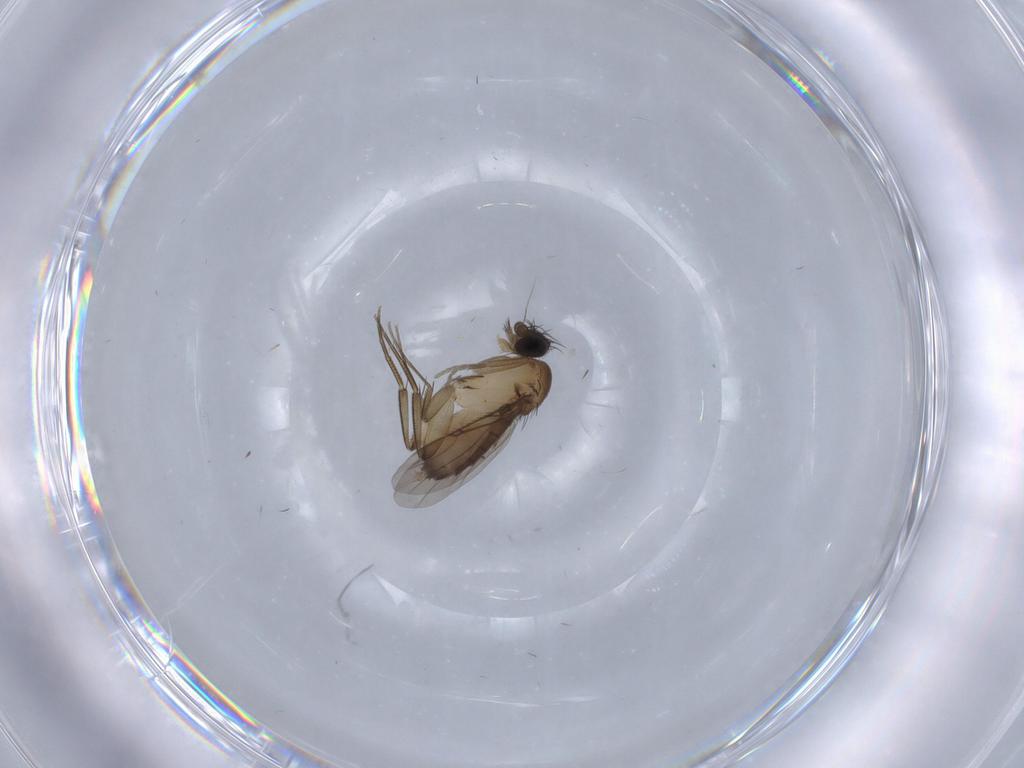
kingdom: Animalia
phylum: Arthropoda
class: Insecta
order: Diptera
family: Phoridae
